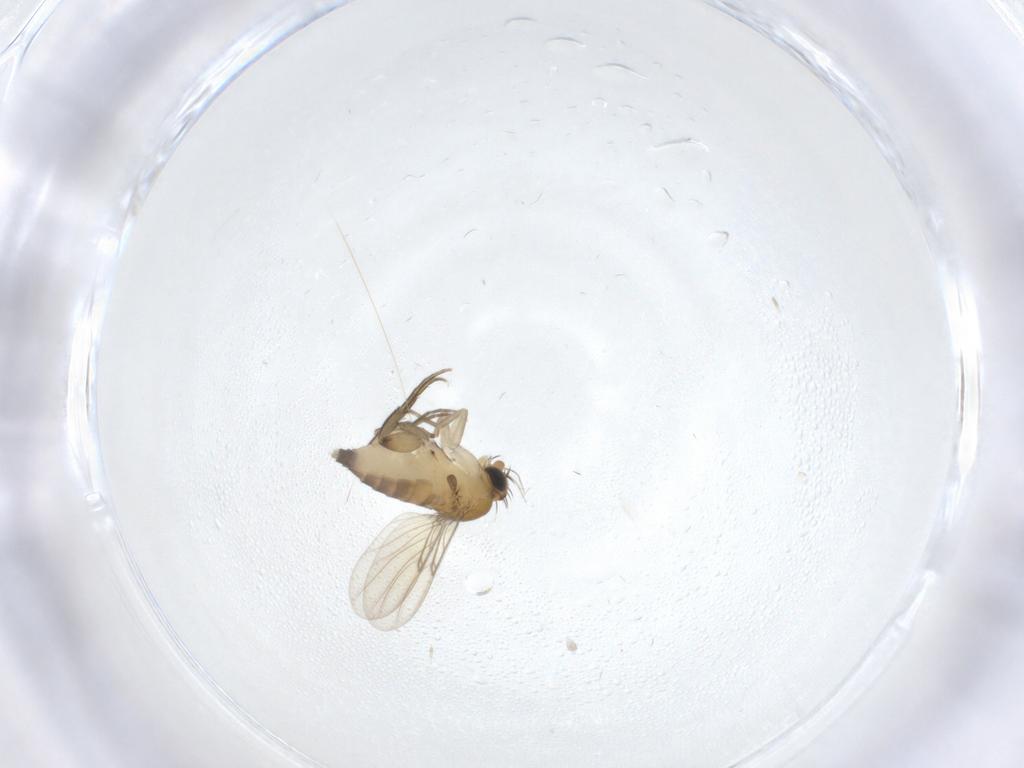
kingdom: Animalia
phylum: Arthropoda
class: Insecta
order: Diptera
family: Phoridae
